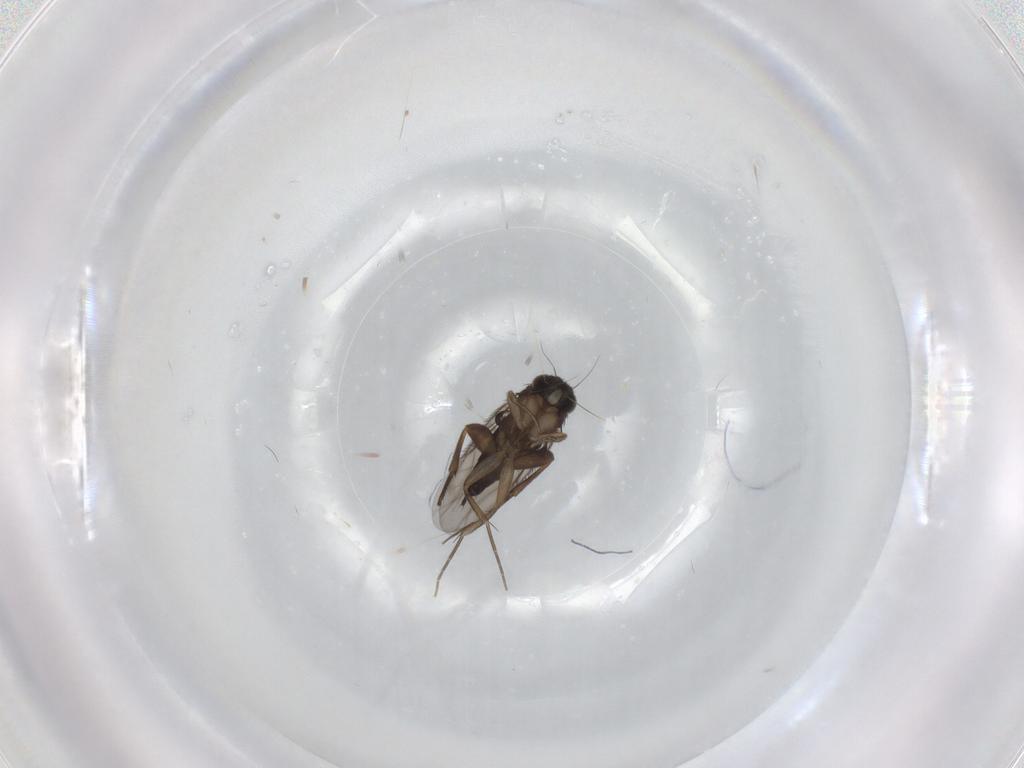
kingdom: Animalia
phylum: Arthropoda
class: Insecta
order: Diptera
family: Phoridae
